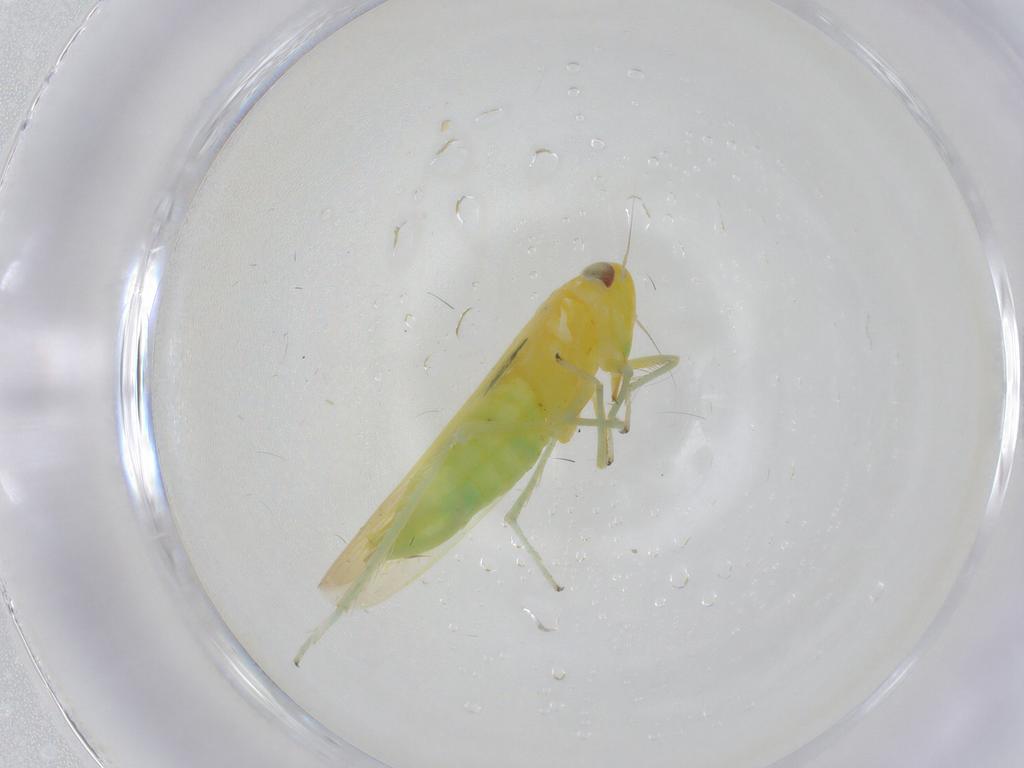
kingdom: Animalia
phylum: Arthropoda
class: Insecta
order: Hemiptera
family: Cicadellidae
